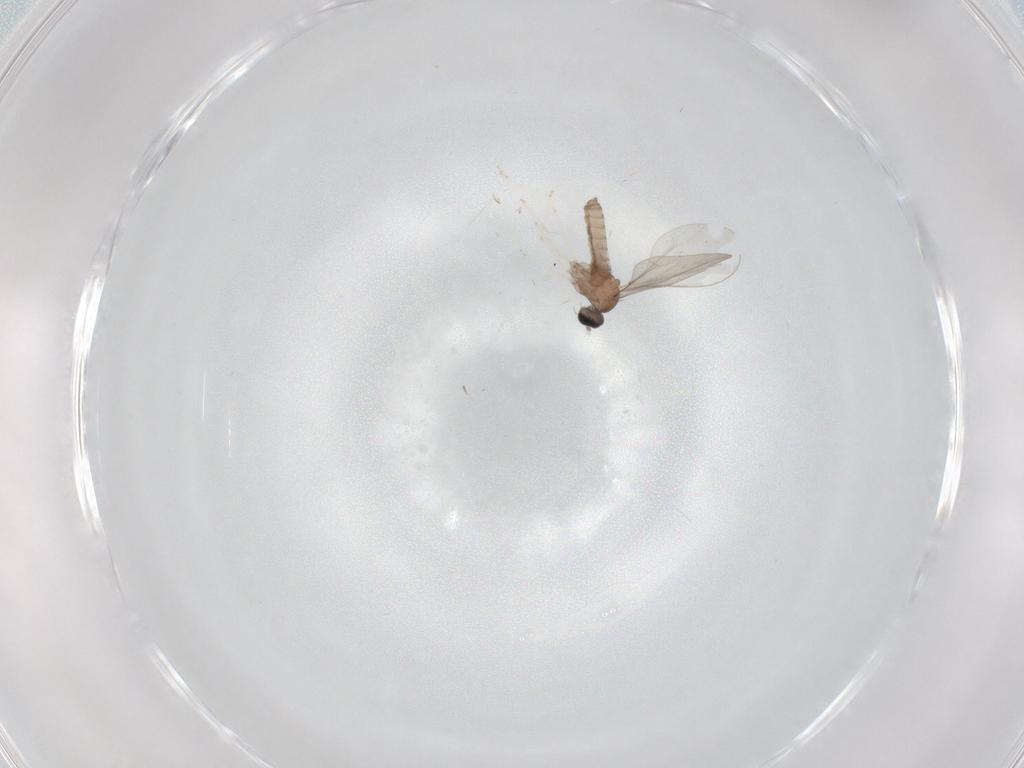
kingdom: Animalia
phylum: Arthropoda
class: Insecta
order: Diptera
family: Cecidomyiidae
